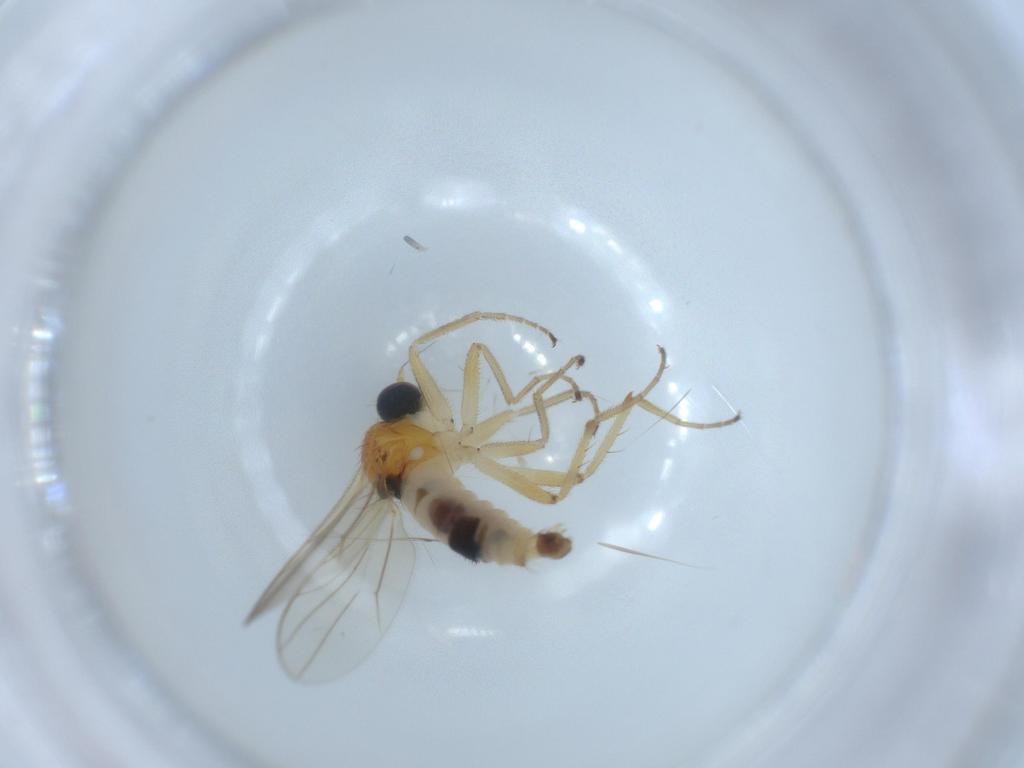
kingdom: Animalia
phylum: Arthropoda
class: Insecta
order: Diptera
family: Hybotidae
